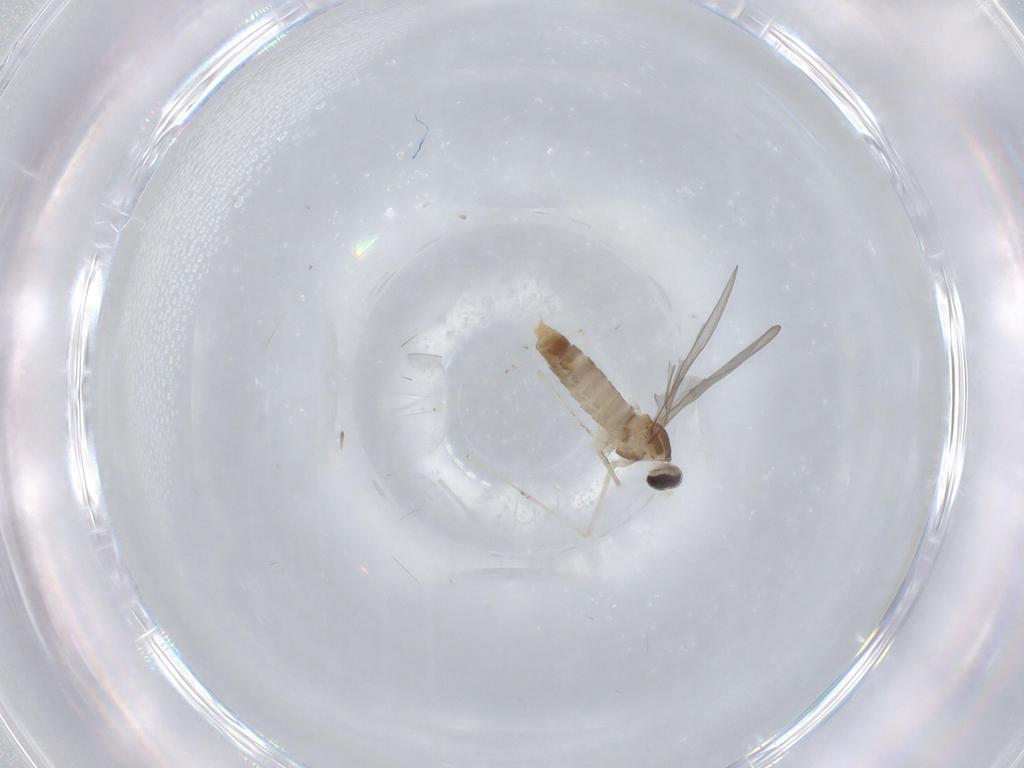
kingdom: Animalia
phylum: Arthropoda
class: Insecta
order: Diptera
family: Cecidomyiidae
